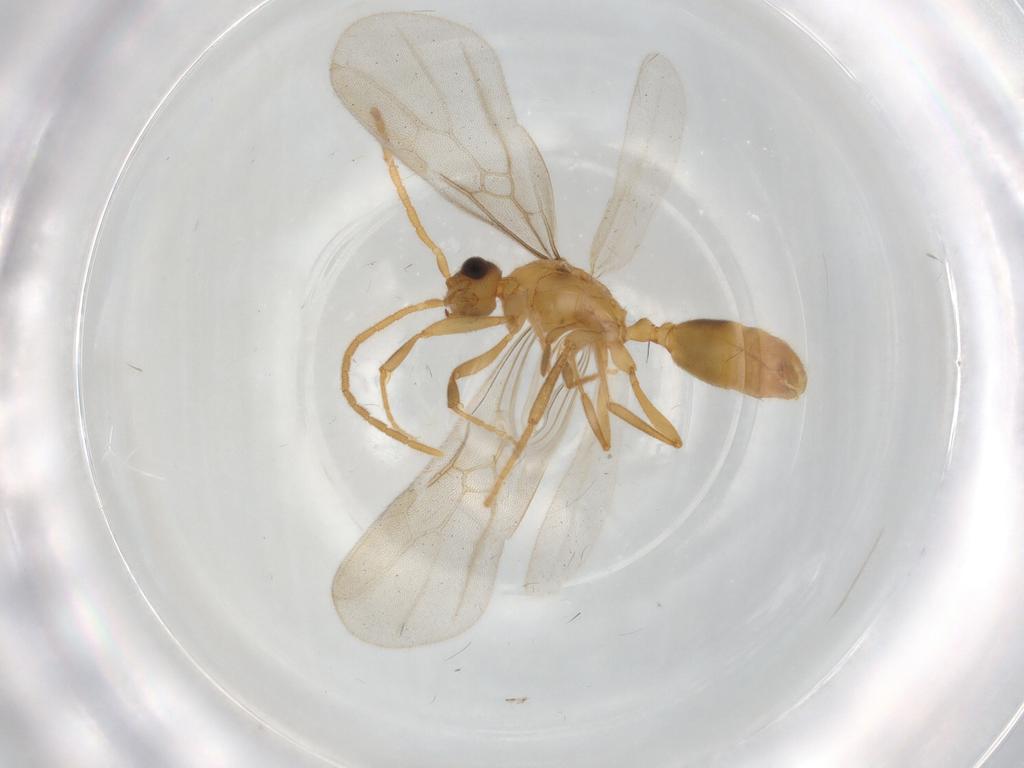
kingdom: Animalia
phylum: Arthropoda
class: Insecta
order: Hymenoptera
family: Formicidae
